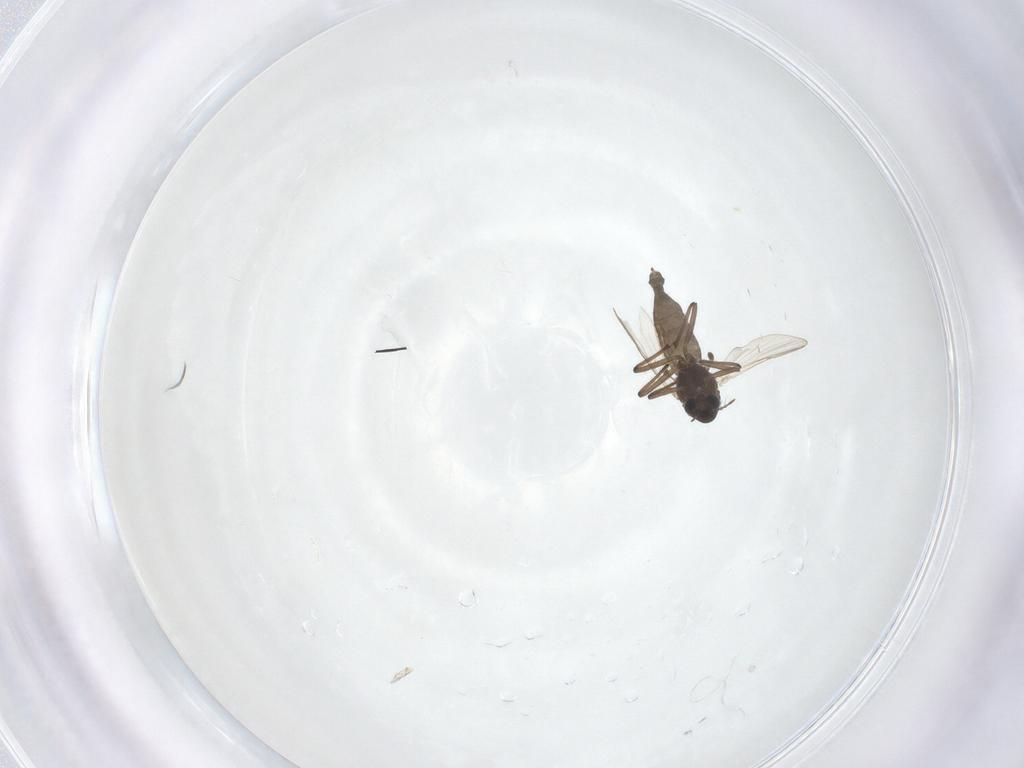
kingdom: Animalia
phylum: Arthropoda
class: Insecta
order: Diptera
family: Chironomidae
